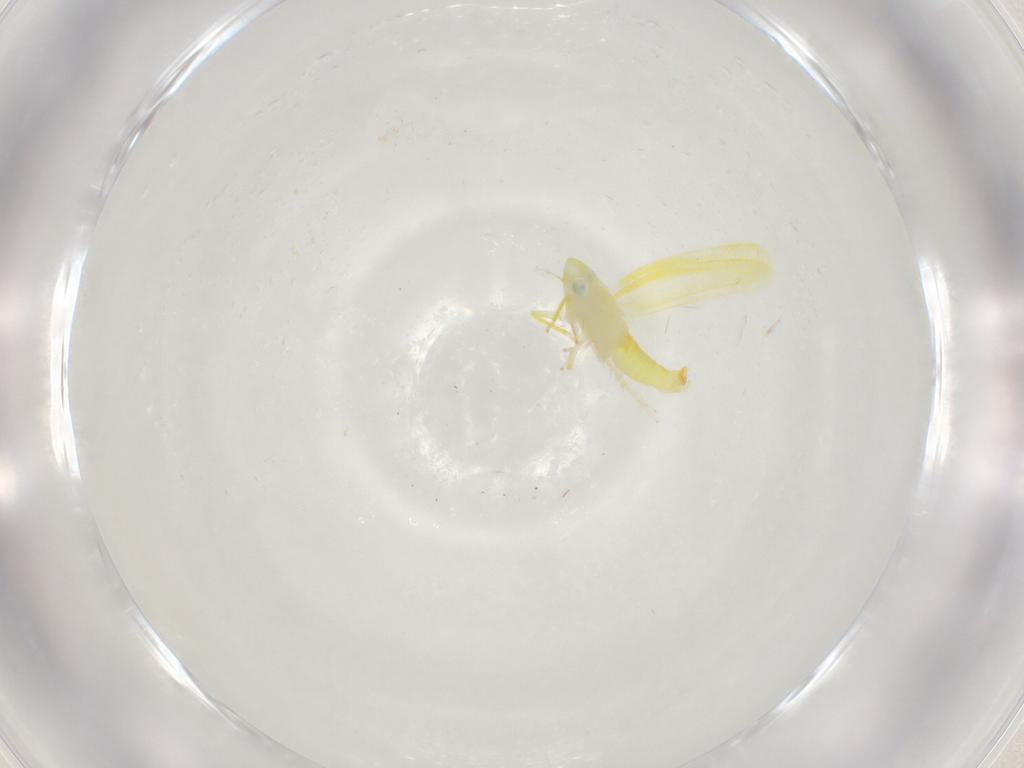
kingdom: Animalia
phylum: Arthropoda
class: Insecta
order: Hemiptera
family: Cicadellidae
